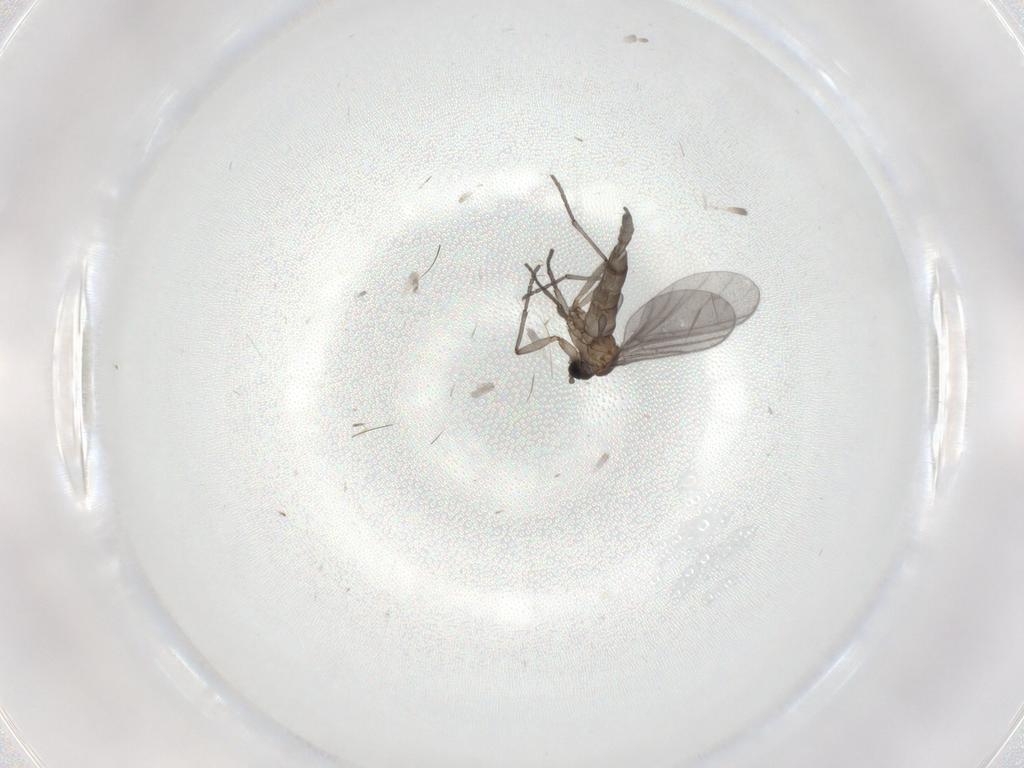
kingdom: Animalia
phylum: Arthropoda
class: Insecta
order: Diptera
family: Sciaridae
